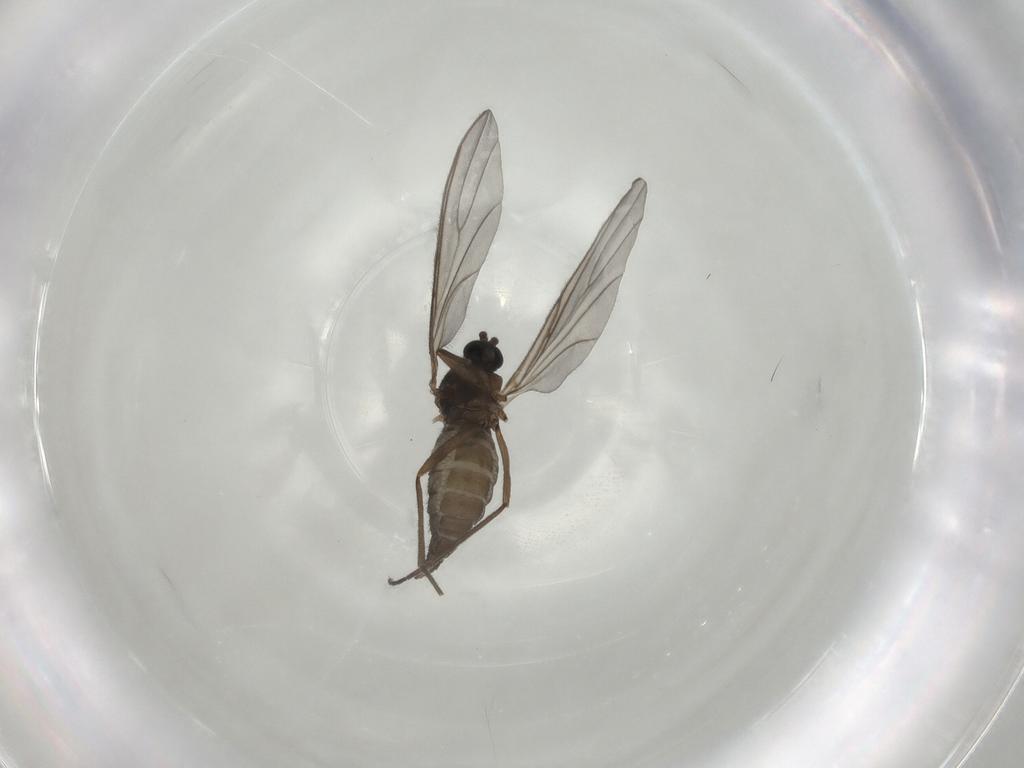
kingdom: Animalia
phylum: Arthropoda
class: Insecta
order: Diptera
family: Sciaridae
